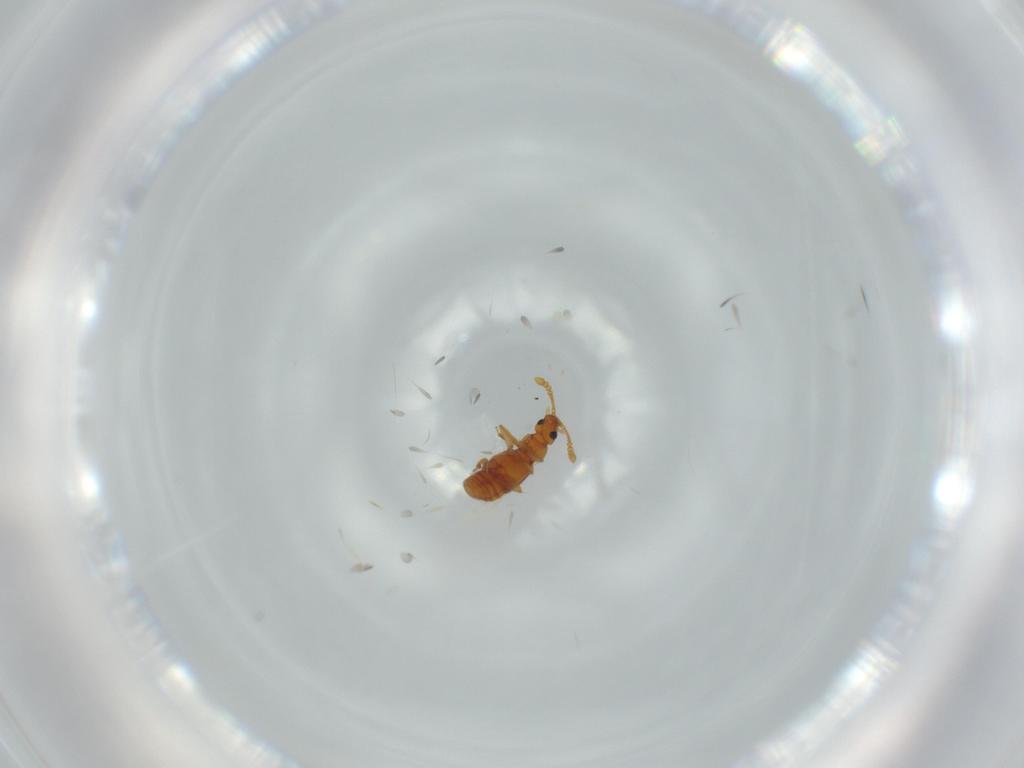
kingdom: Animalia
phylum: Arthropoda
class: Insecta
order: Coleoptera
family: Staphylinidae
